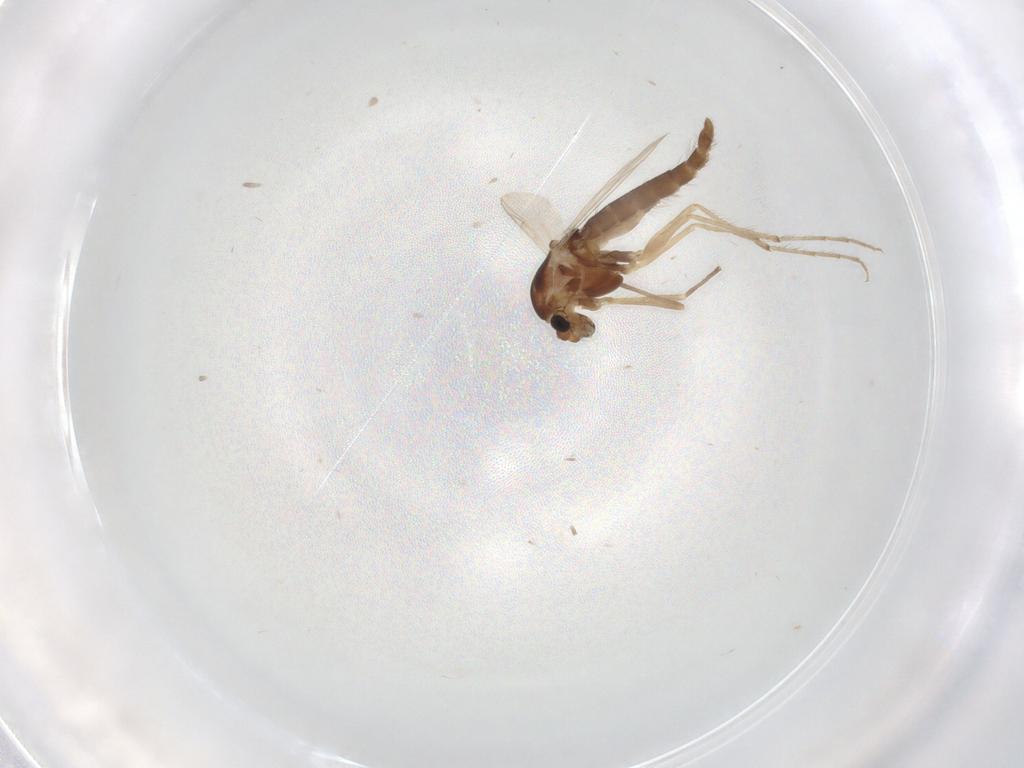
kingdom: Animalia
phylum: Arthropoda
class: Insecta
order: Diptera
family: Chironomidae
